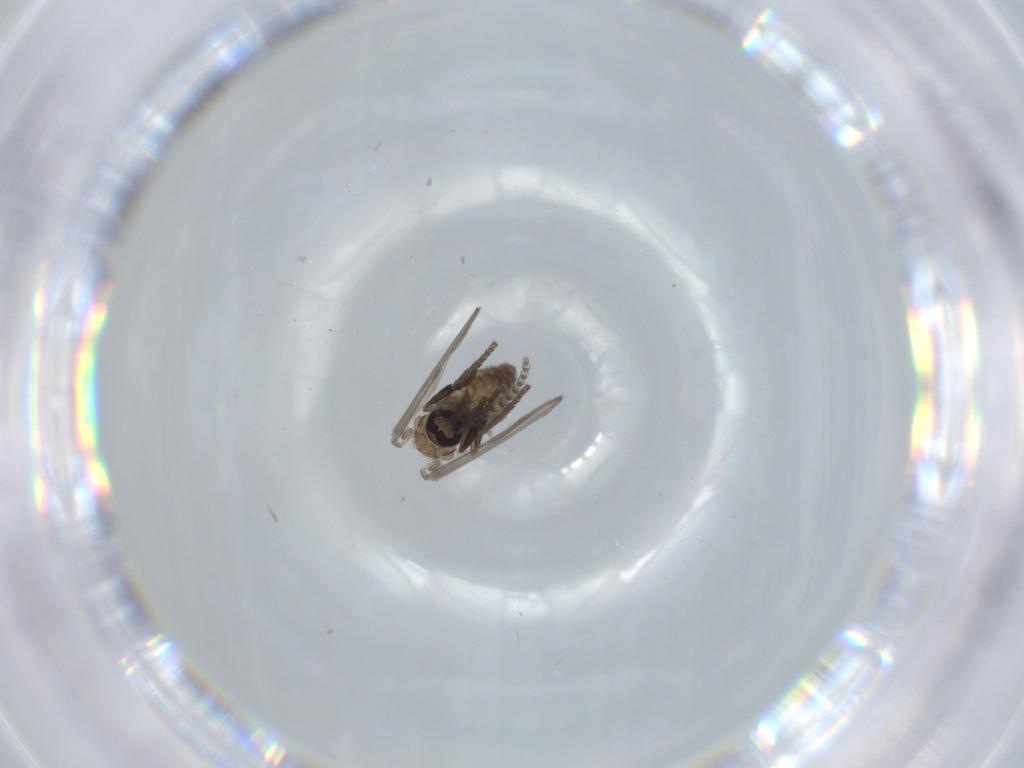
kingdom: Animalia
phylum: Arthropoda
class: Insecta
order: Diptera
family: Psychodidae
